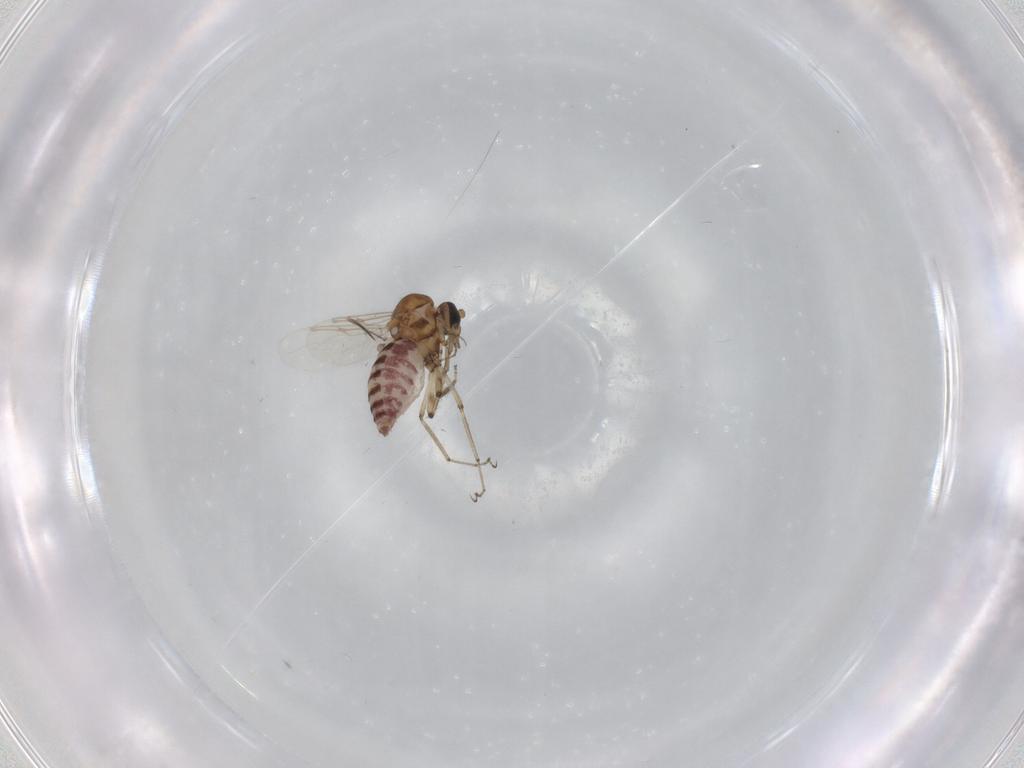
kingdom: Animalia
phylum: Arthropoda
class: Insecta
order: Diptera
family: Ceratopogonidae
